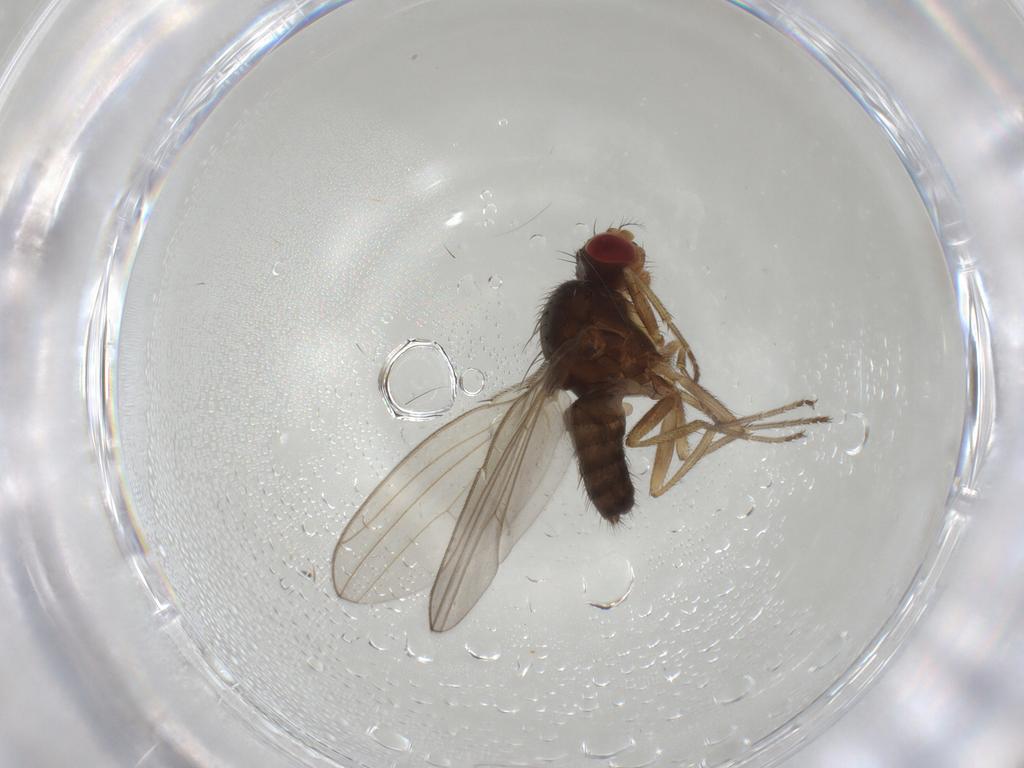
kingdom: Animalia
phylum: Arthropoda
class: Insecta
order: Diptera
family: Drosophilidae
